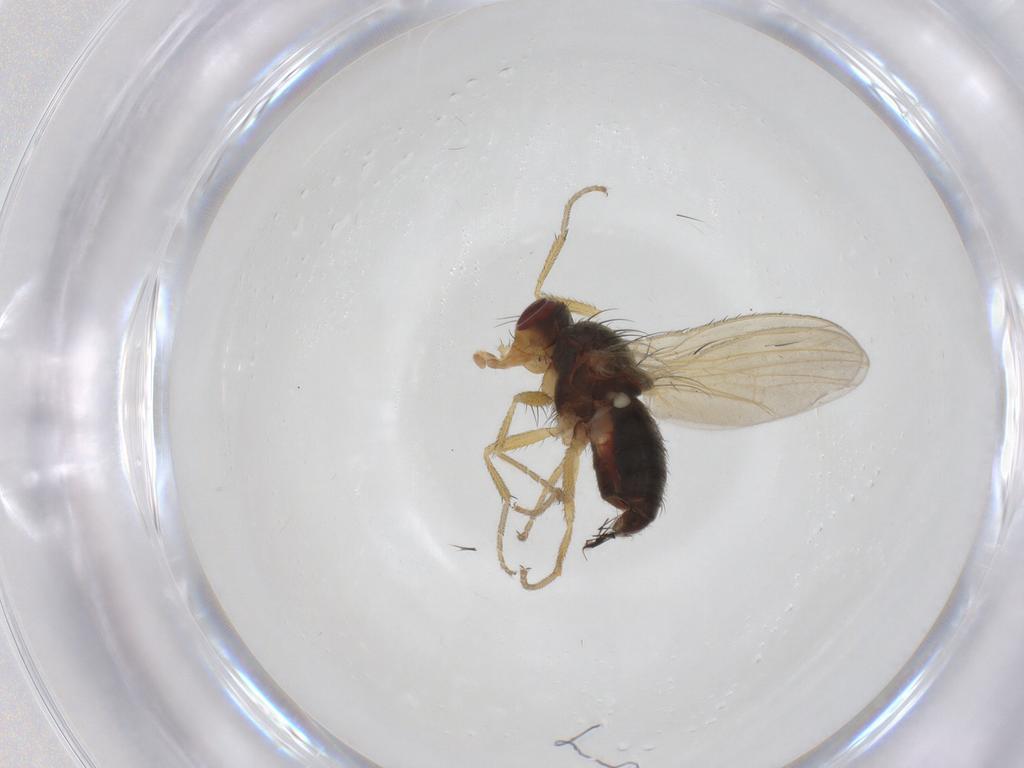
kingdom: Animalia
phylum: Arthropoda
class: Insecta
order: Diptera
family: Heleomyzidae
